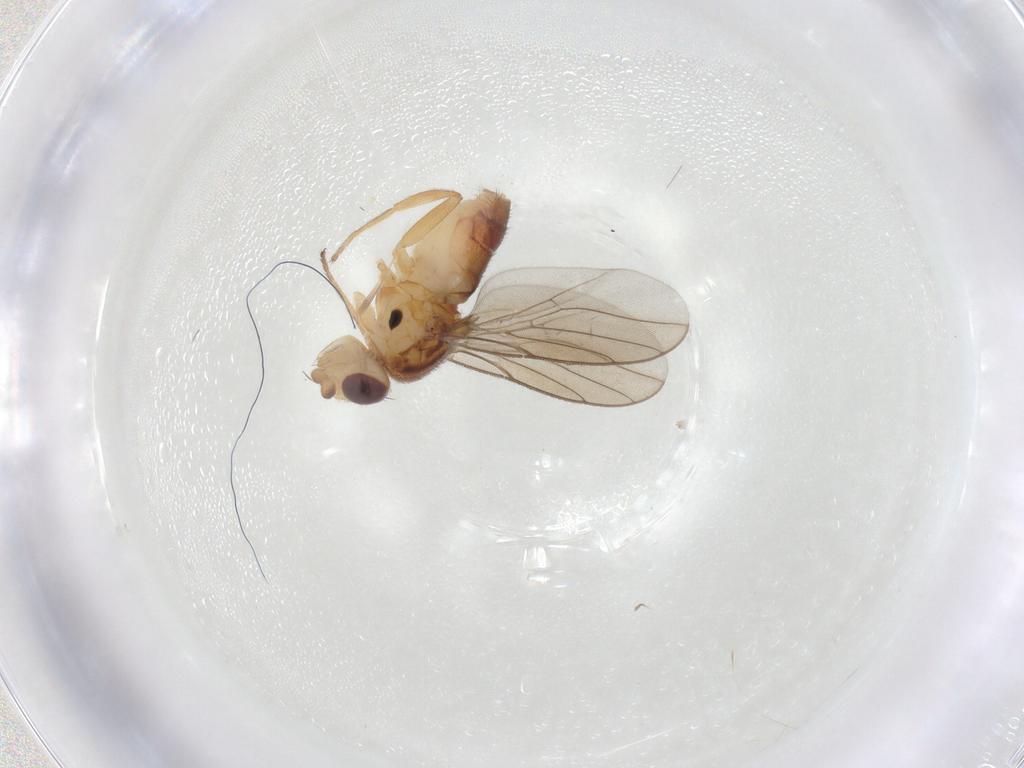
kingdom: Animalia
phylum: Arthropoda
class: Insecta
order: Diptera
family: Chloropidae
